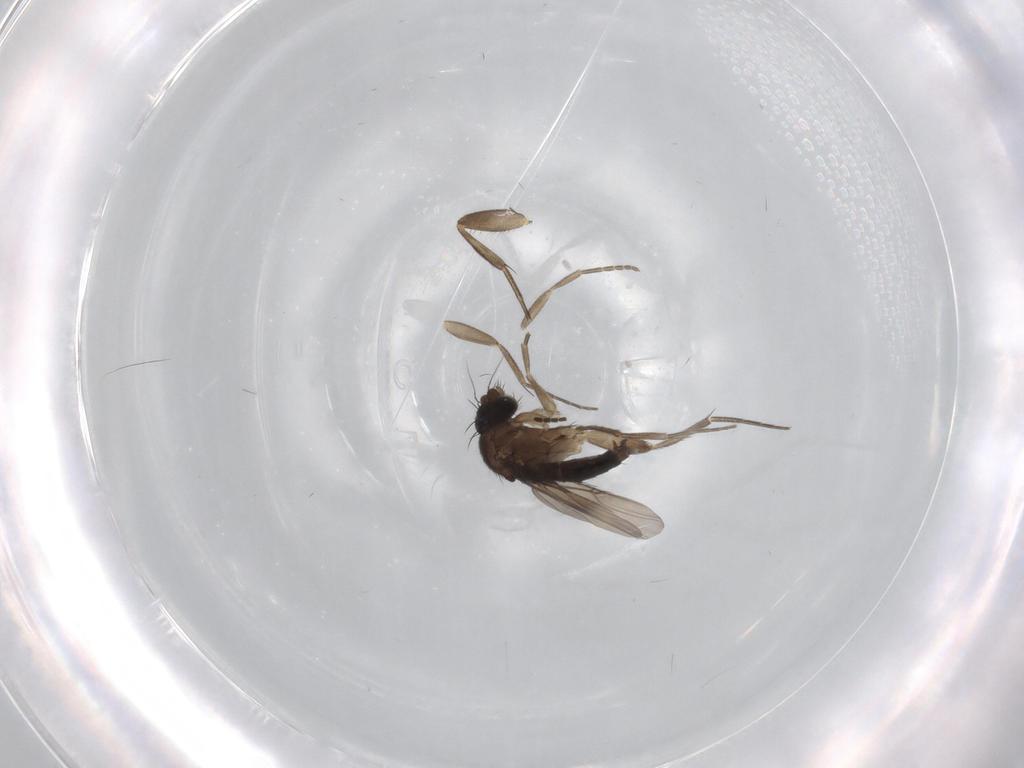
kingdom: Animalia
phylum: Arthropoda
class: Insecta
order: Diptera
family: Phoridae
